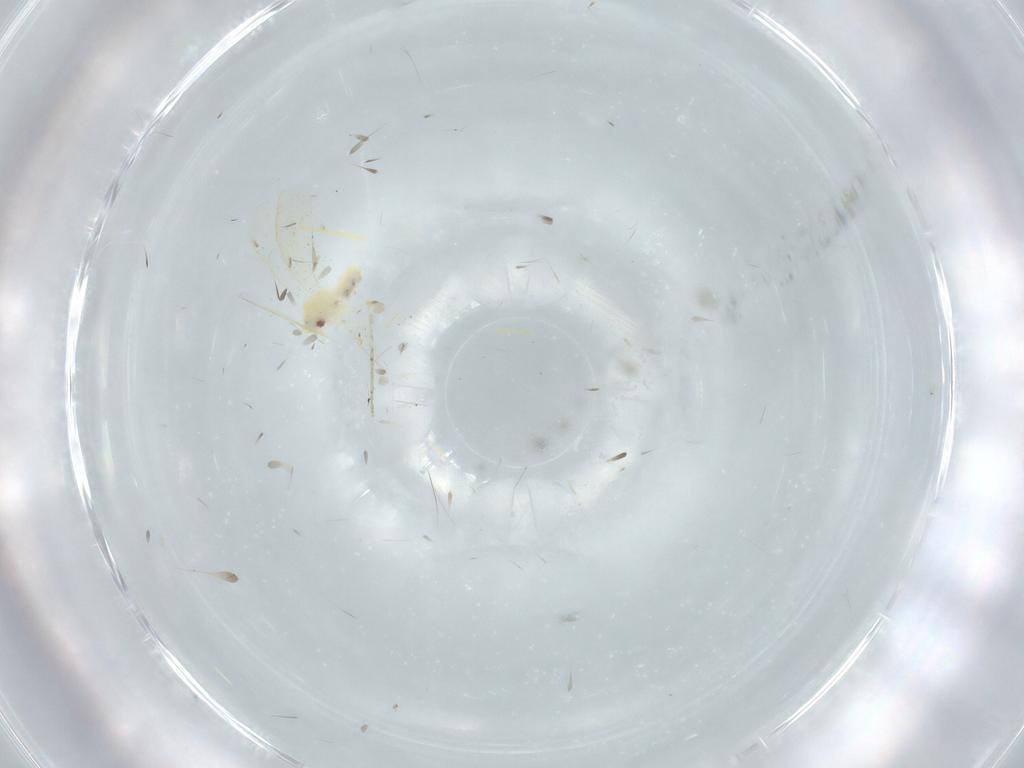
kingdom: Animalia
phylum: Arthropoda
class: Insecta
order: Hemiptera
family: Aleyrodidae
